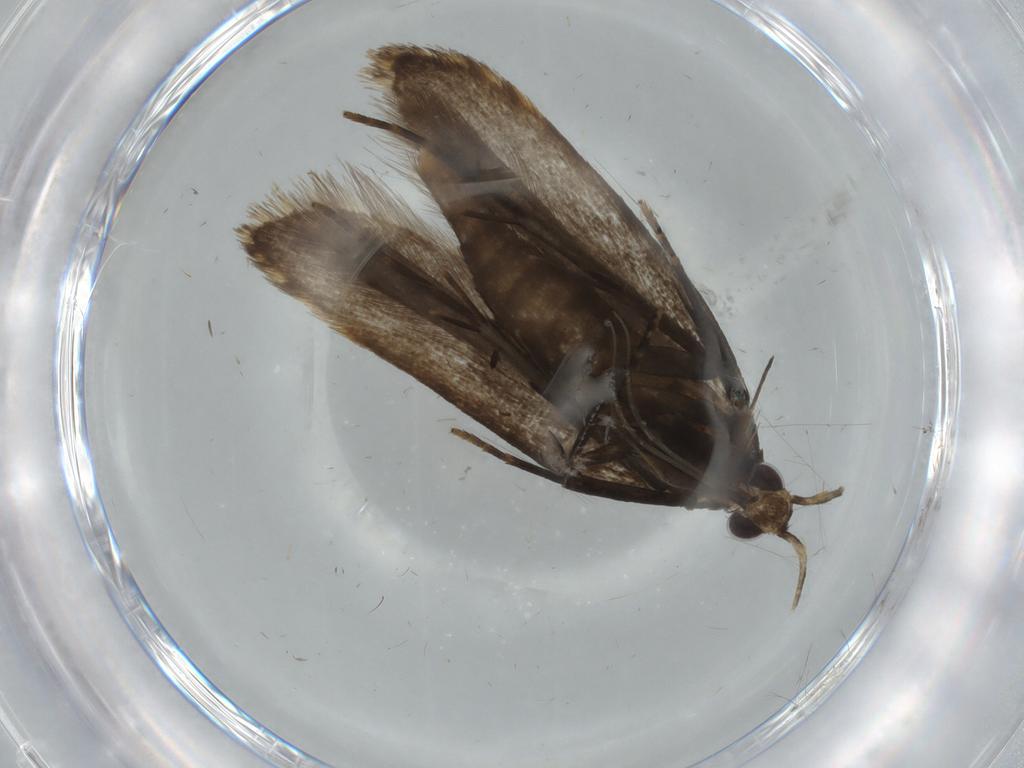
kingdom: Animalia
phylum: Arthropoda
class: Insecta
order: Lepidoptera
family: Gelechiidae
